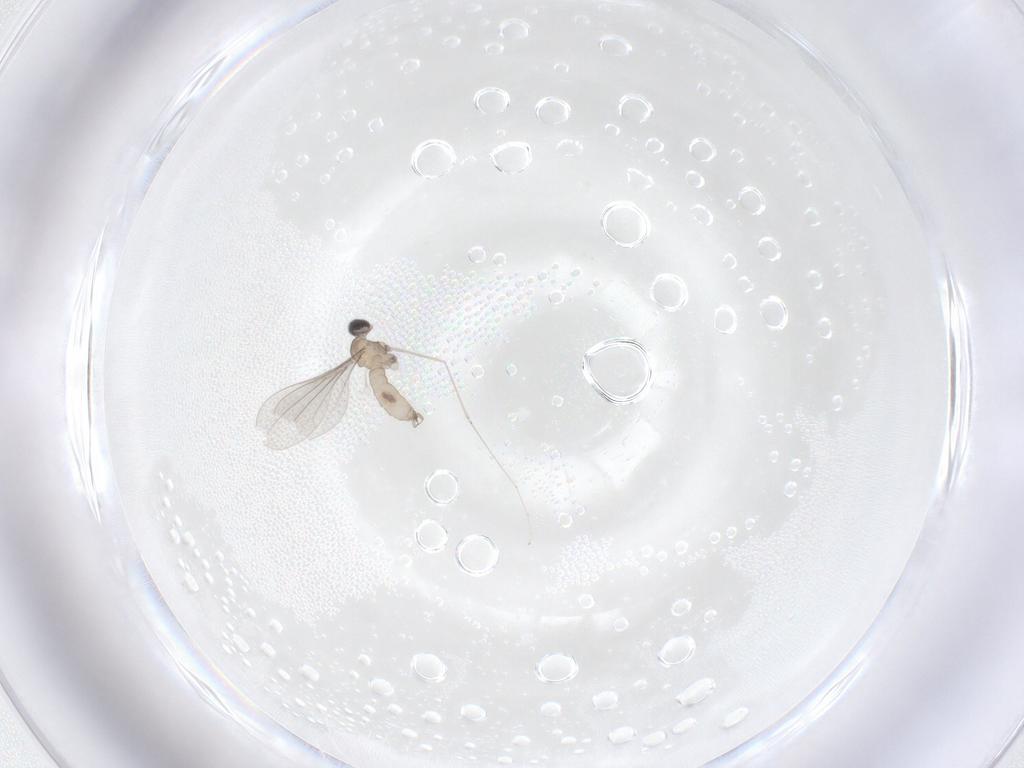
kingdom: Animalia
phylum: Arthropoda
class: Insecta
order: Diptera
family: Cecidomyiidae
